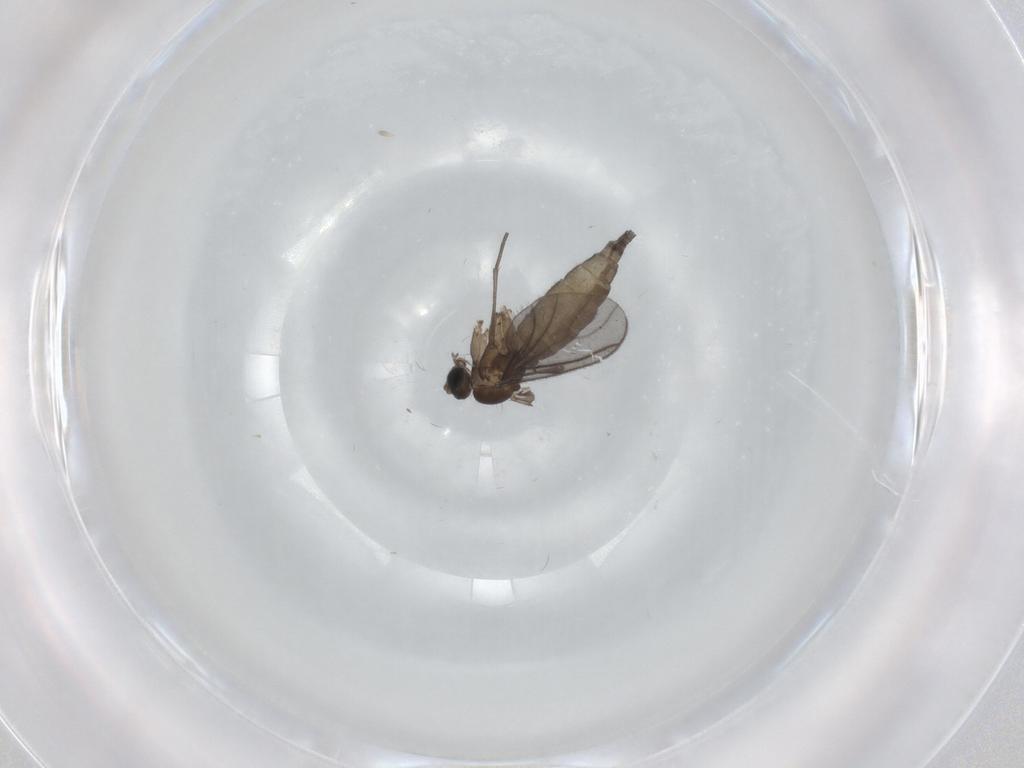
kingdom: Animalia
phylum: Arthropoda
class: Insecta
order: Diptera
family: Sciaridae
